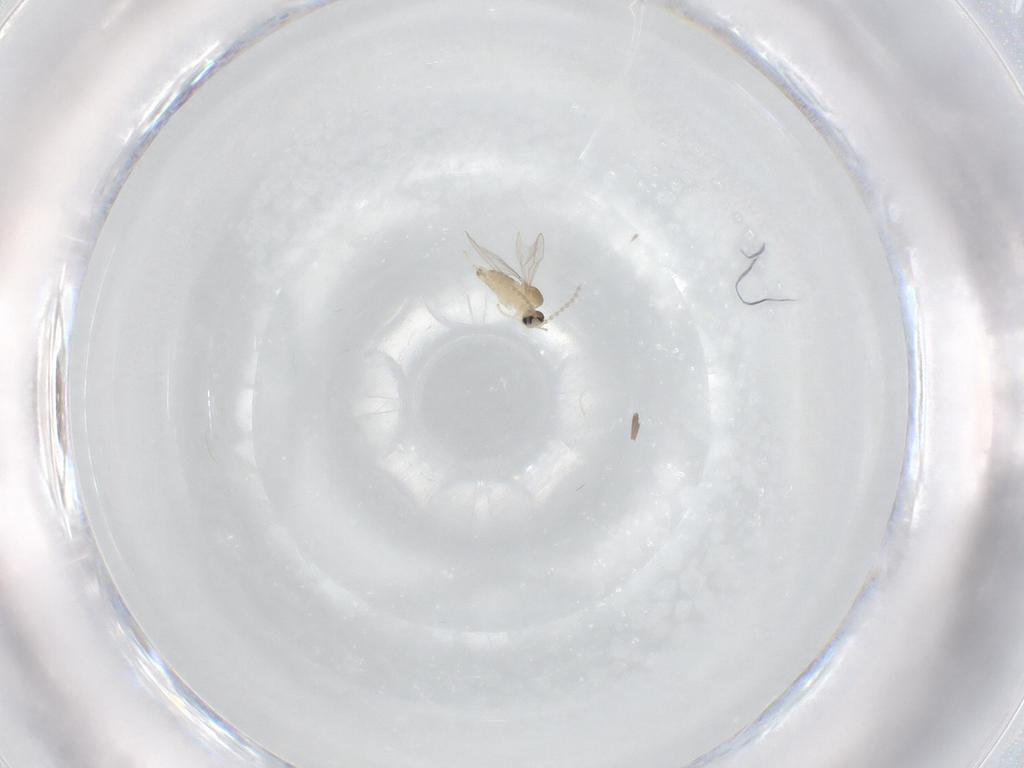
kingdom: Animalia
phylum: Arthropoda
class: Insecta
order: Diptera
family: Cecidomyiidae
